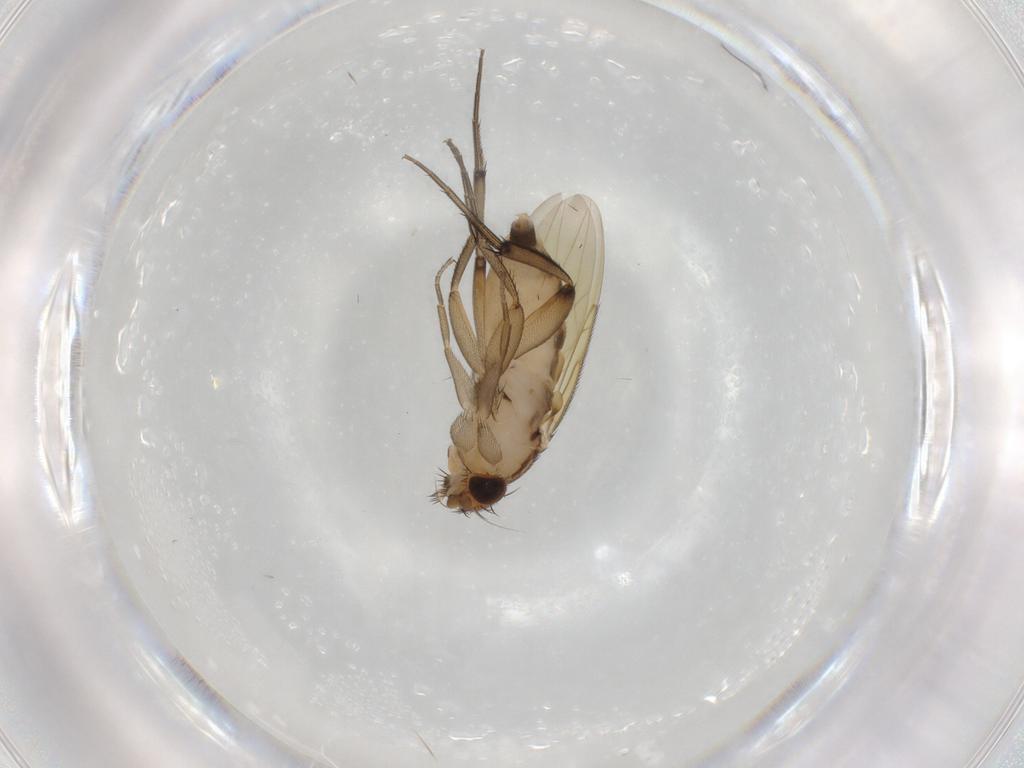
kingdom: Animalia
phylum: Arthropoda
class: Insecta
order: Diptera
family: Phoridae
